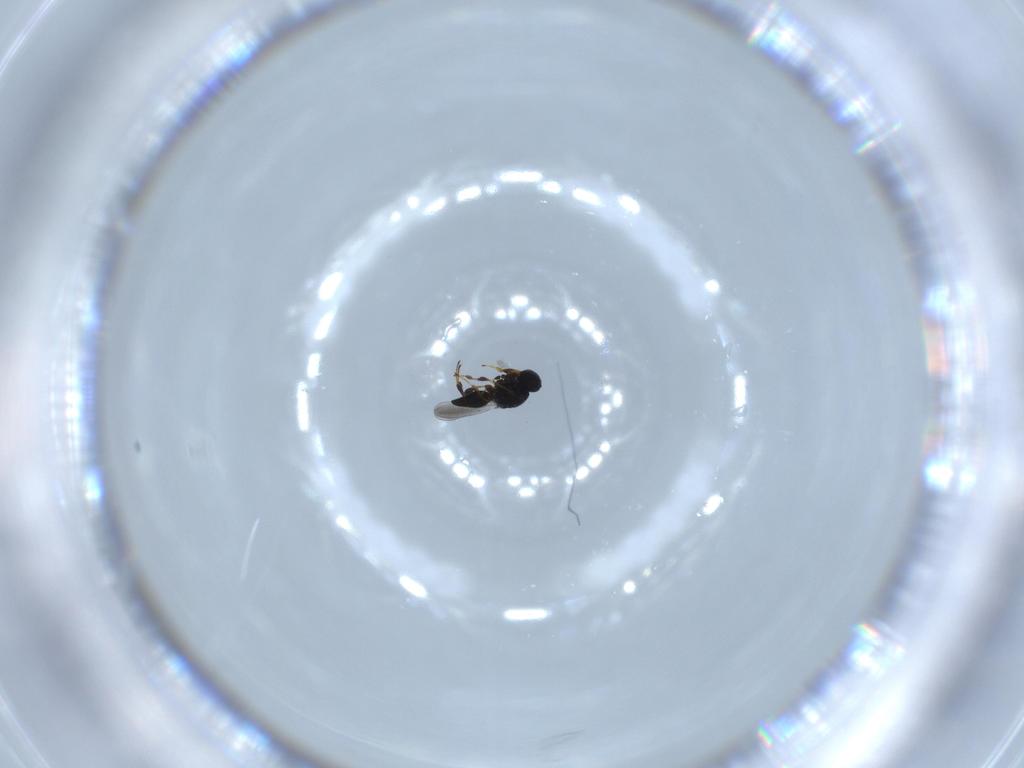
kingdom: Animalia
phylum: Arthropoda
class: Insecta
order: Hymenoptera
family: Platygastridae
